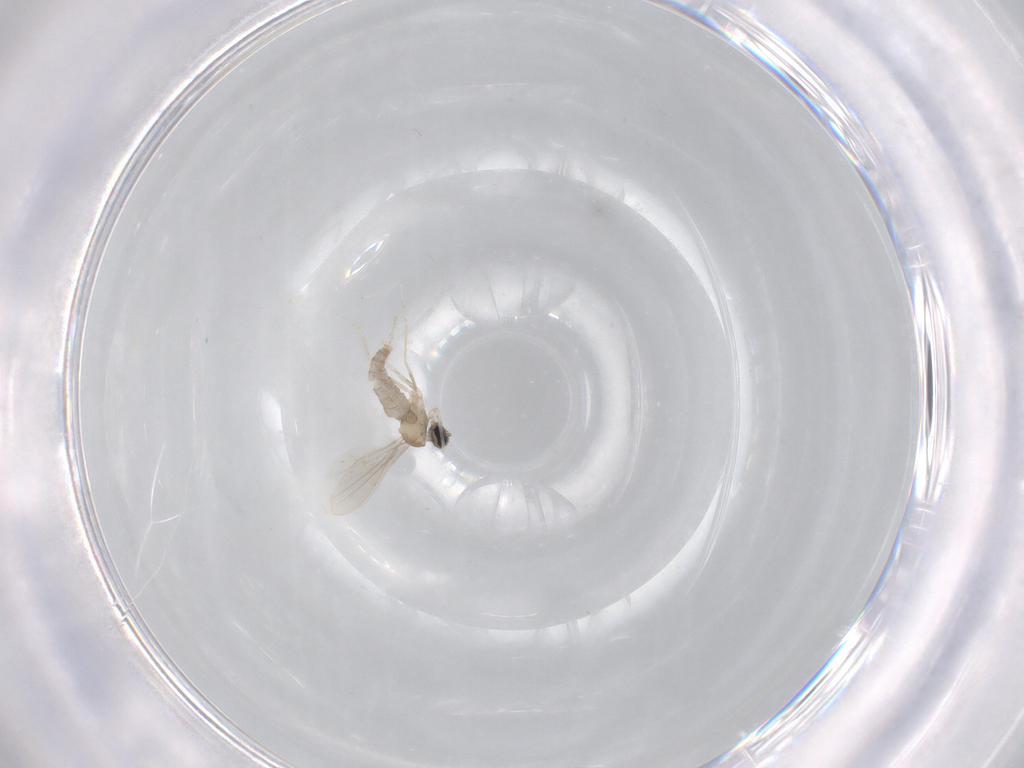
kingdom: Animalia
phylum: Arthropoda
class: Insecta
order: Diptera
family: Cecidomyiidae
